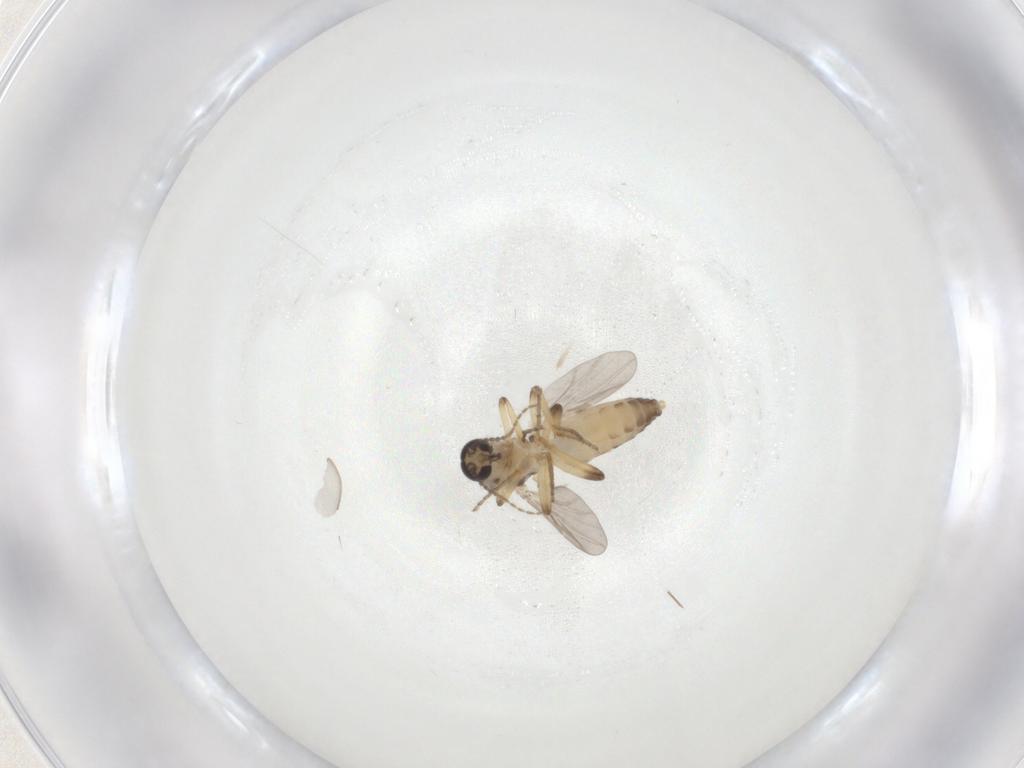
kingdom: Animalia
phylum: Arthropoda
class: Insecta
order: Diptera
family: Ceratopogonidae
